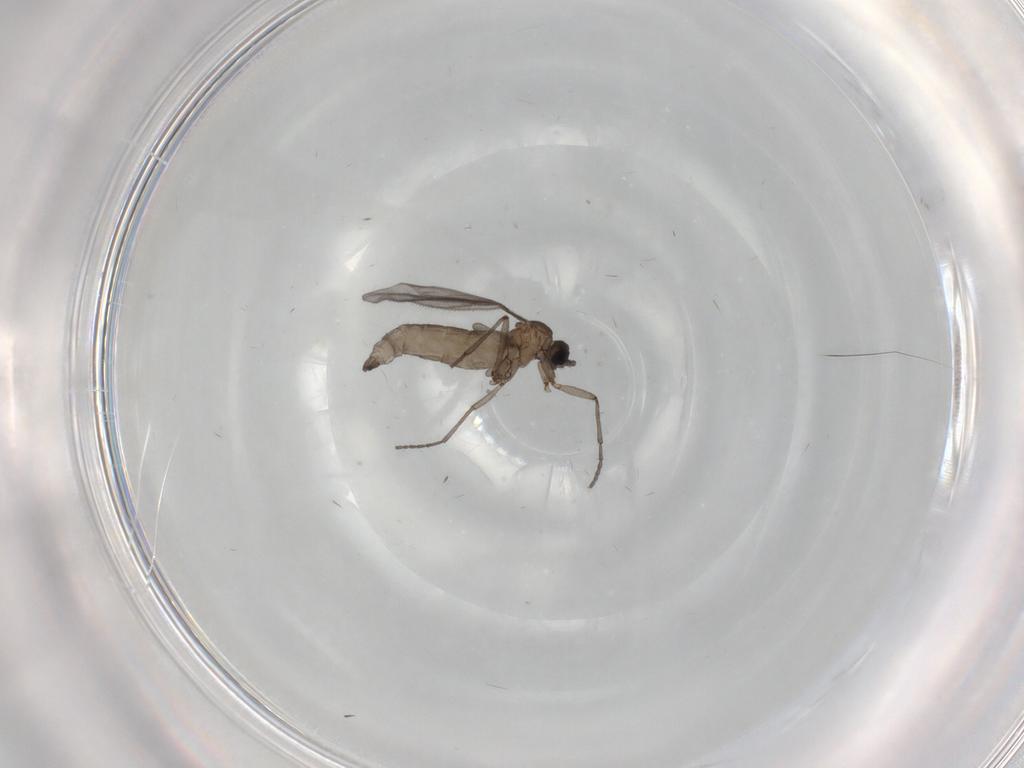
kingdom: Animalia
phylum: Arthropoda
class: Insecta
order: Diptera
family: Sciaridae
